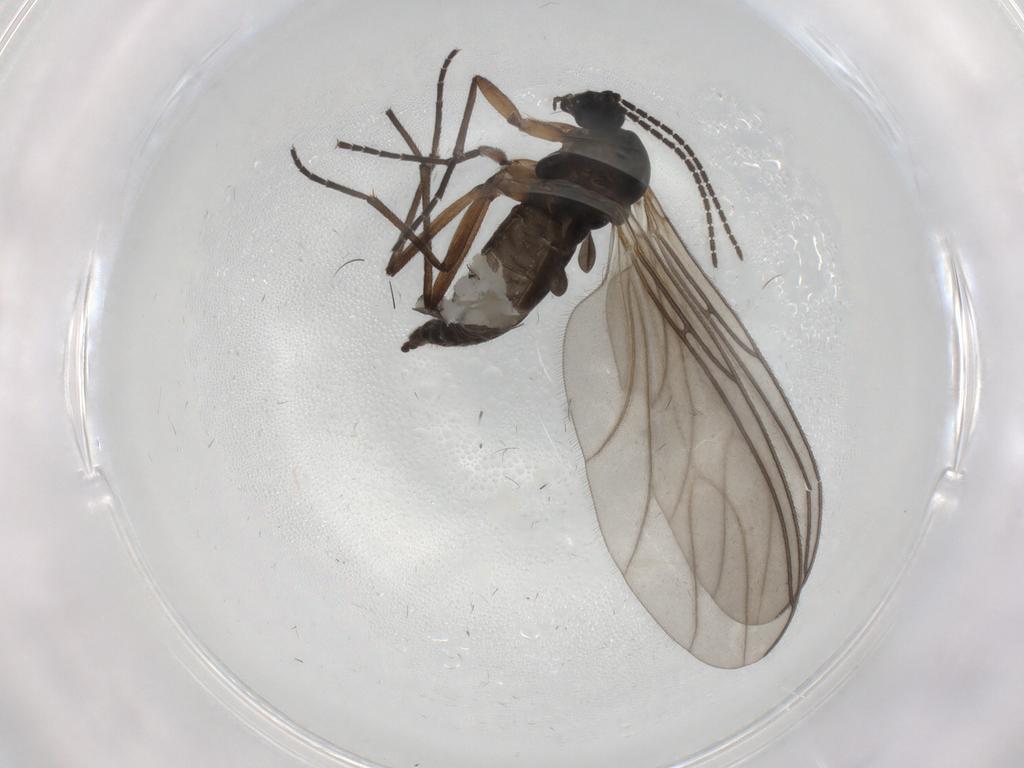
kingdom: Animalia
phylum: Arthropoda
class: Insecta
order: Diptera
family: Sciaridae
